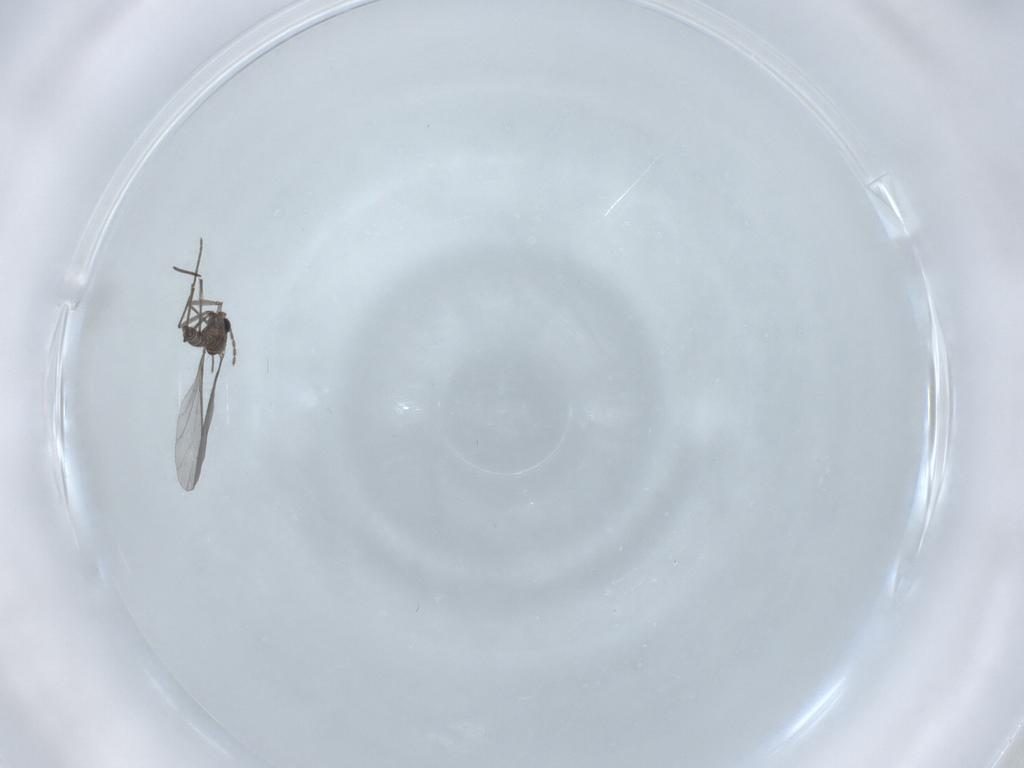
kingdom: Animalia
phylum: Arthropoda
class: Insecta
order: Diptera
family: Sciaridae
